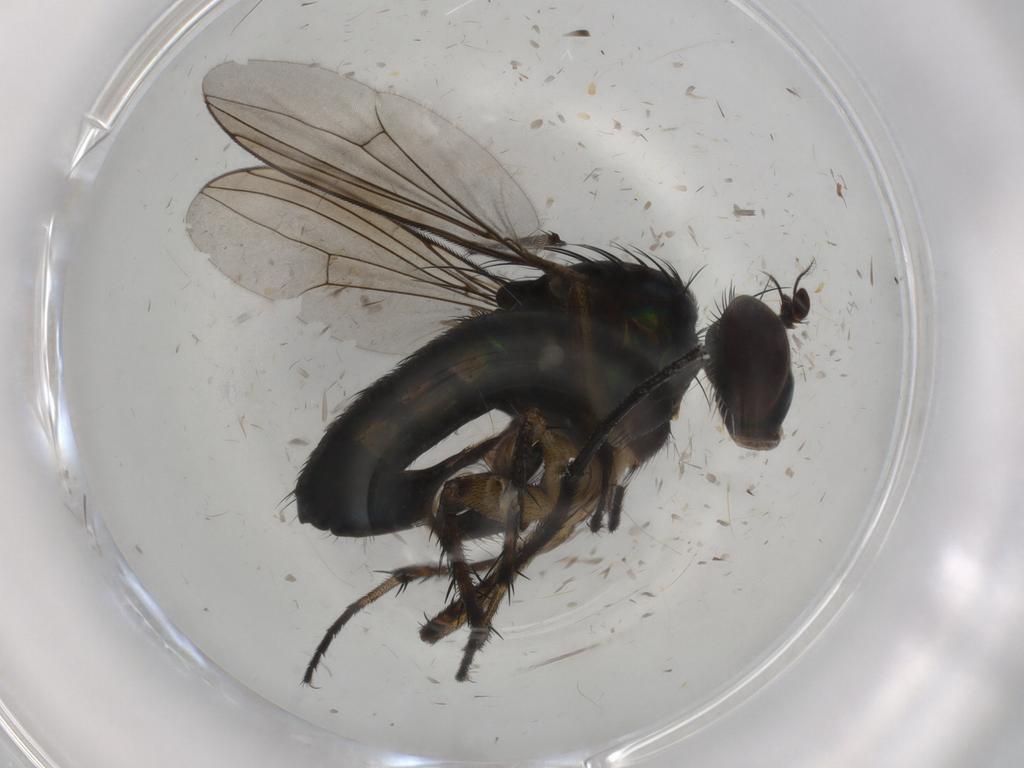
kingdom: Animalia
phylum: Arthropoda
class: Insecta
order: Diptera
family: Dolichopodidae
